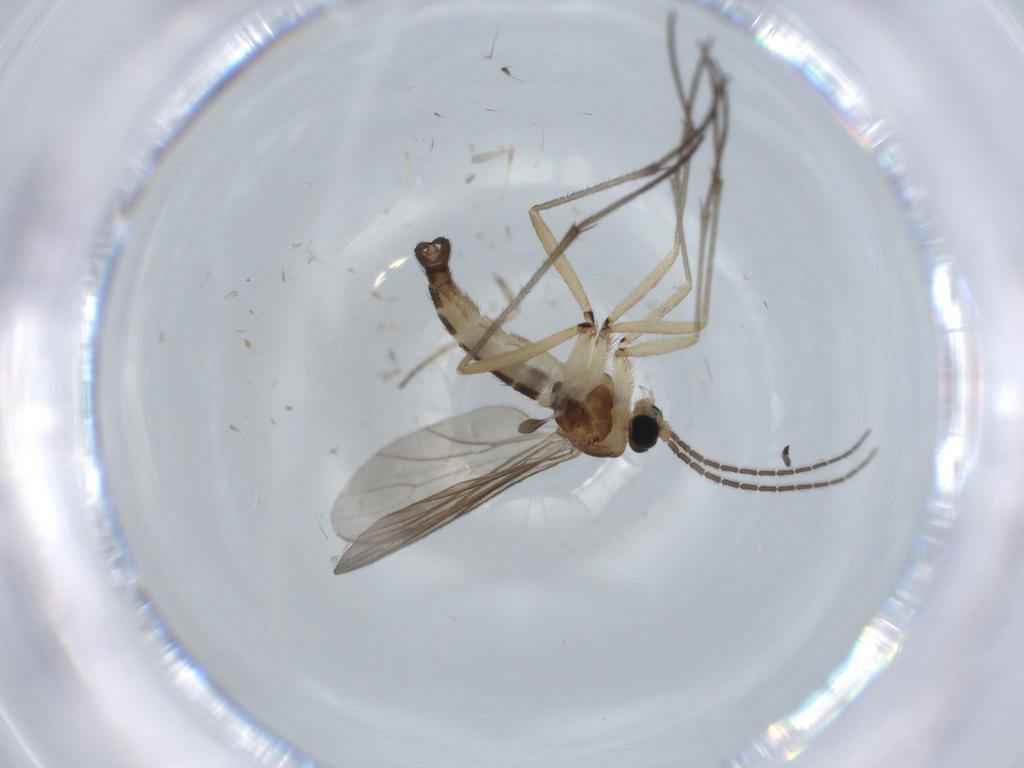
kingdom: Animalia
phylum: Arthropoda
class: Insecta
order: Diptera
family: Sciaridae
